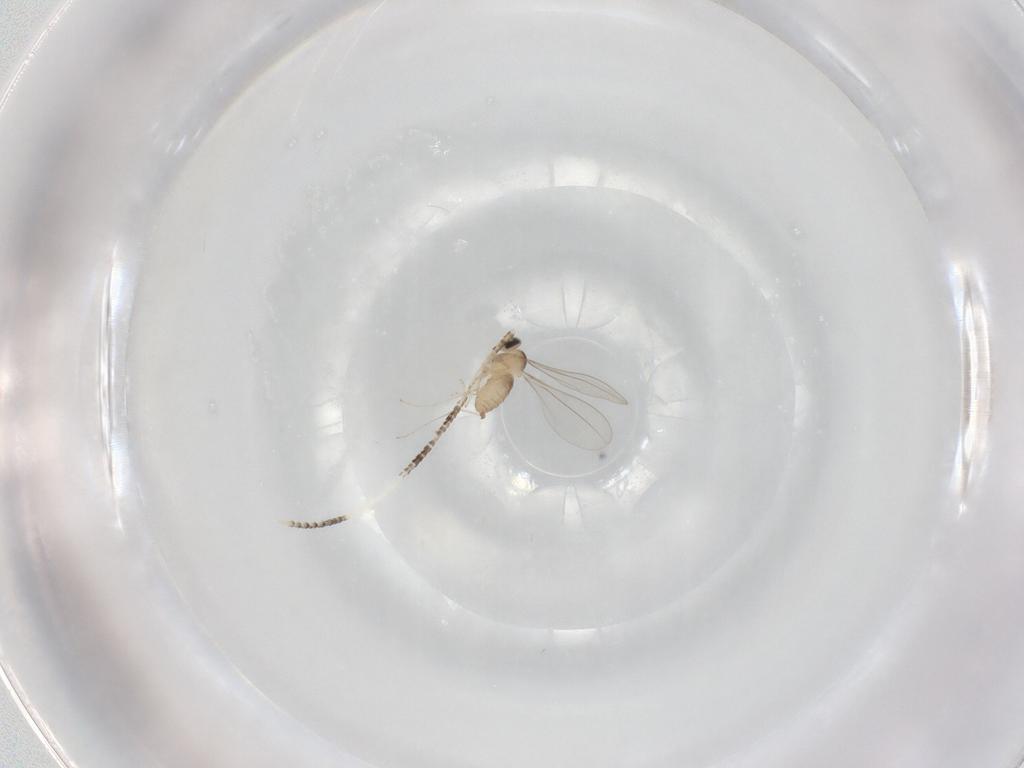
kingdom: Animalia
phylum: Arthropoda
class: Insecta
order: Diptera
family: Cecidomyiidae
